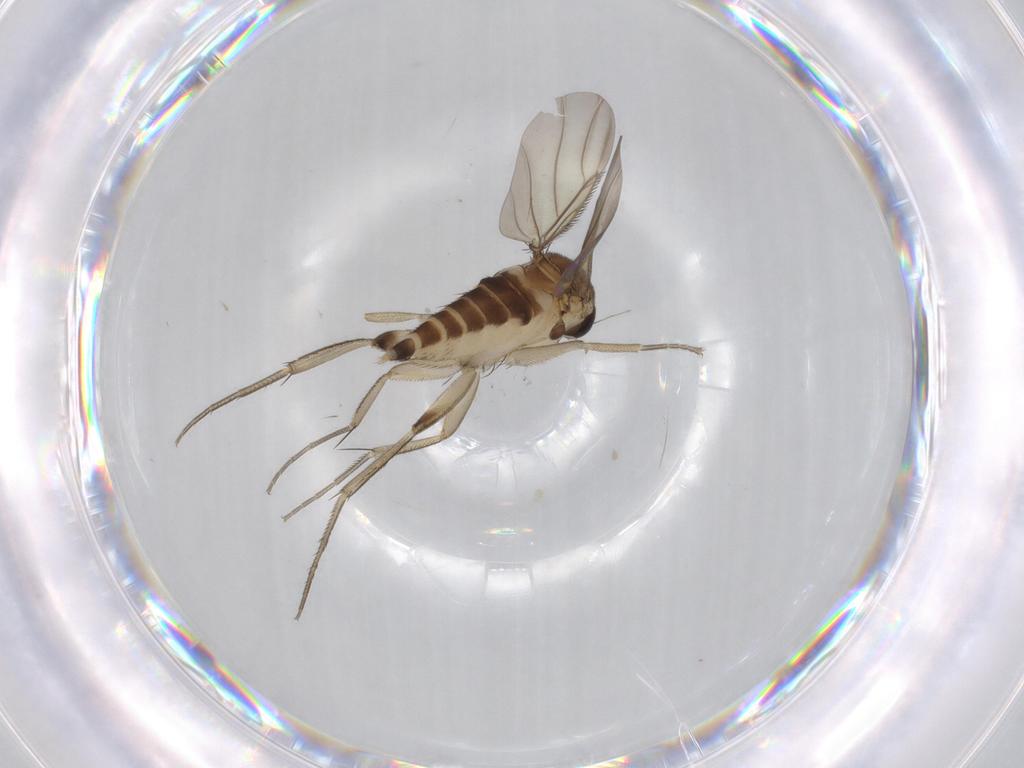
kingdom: Animalia
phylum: Arthropoda
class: Insecta
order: Diptera
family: Phoridae
